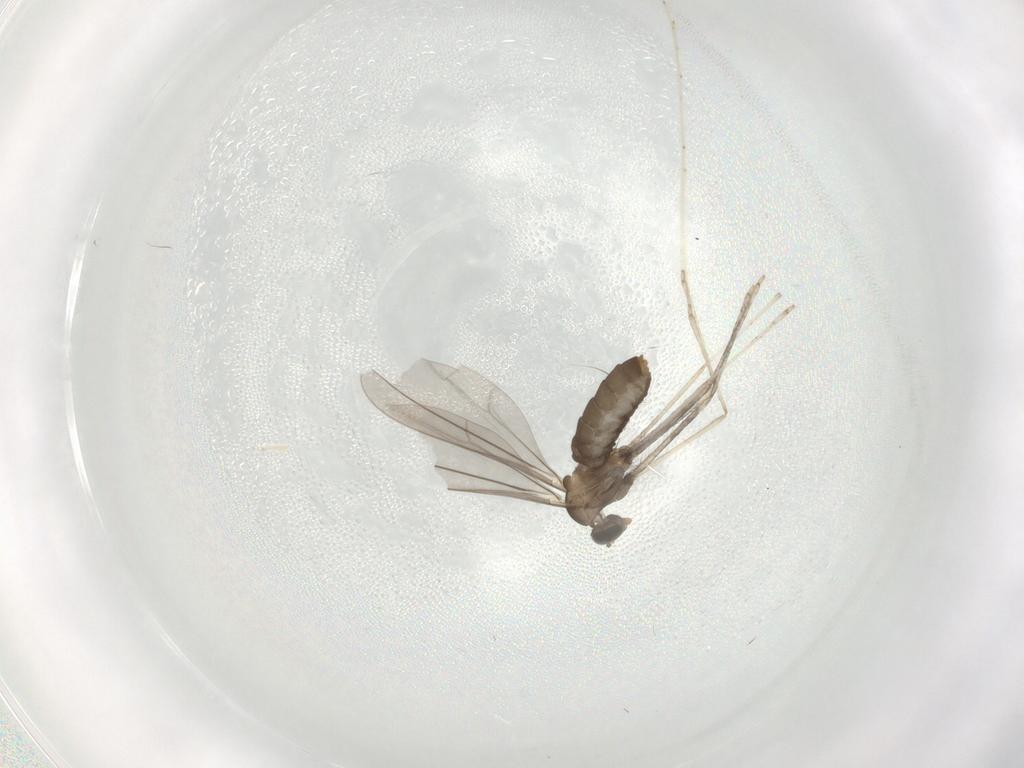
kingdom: Animalia
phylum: Arthropoda
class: Insecta
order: Diptera
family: Cecidomyiidae
